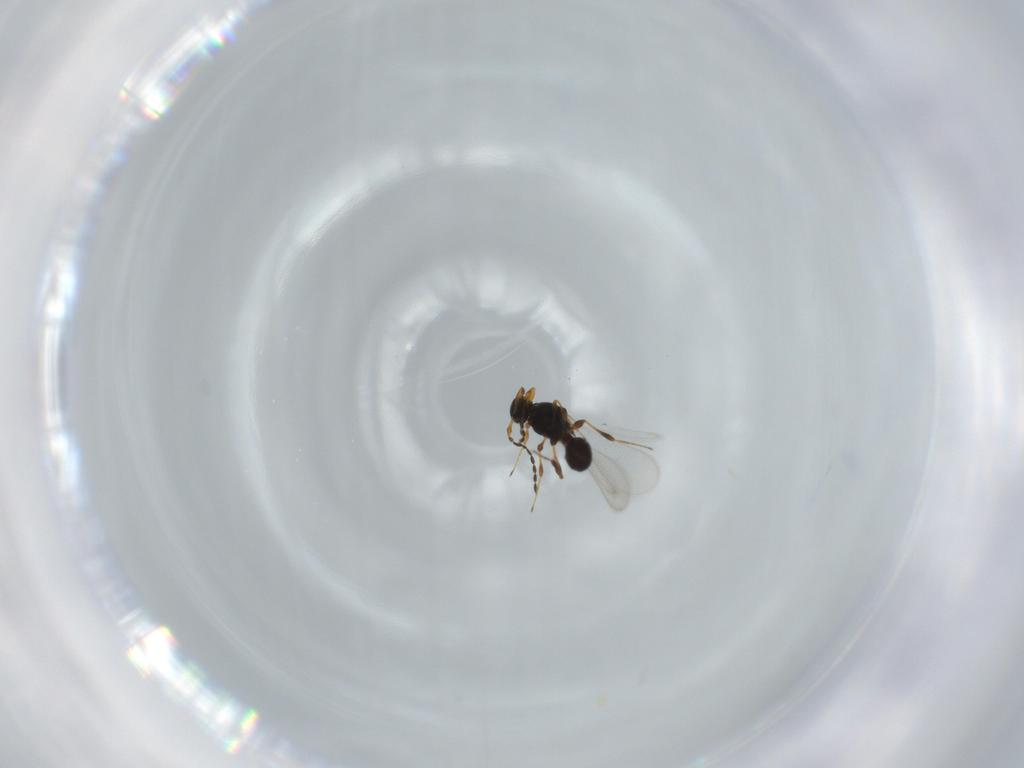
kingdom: Animalia
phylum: Arthropoda
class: Insecta
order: Hymenoptera
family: Platygastridae
